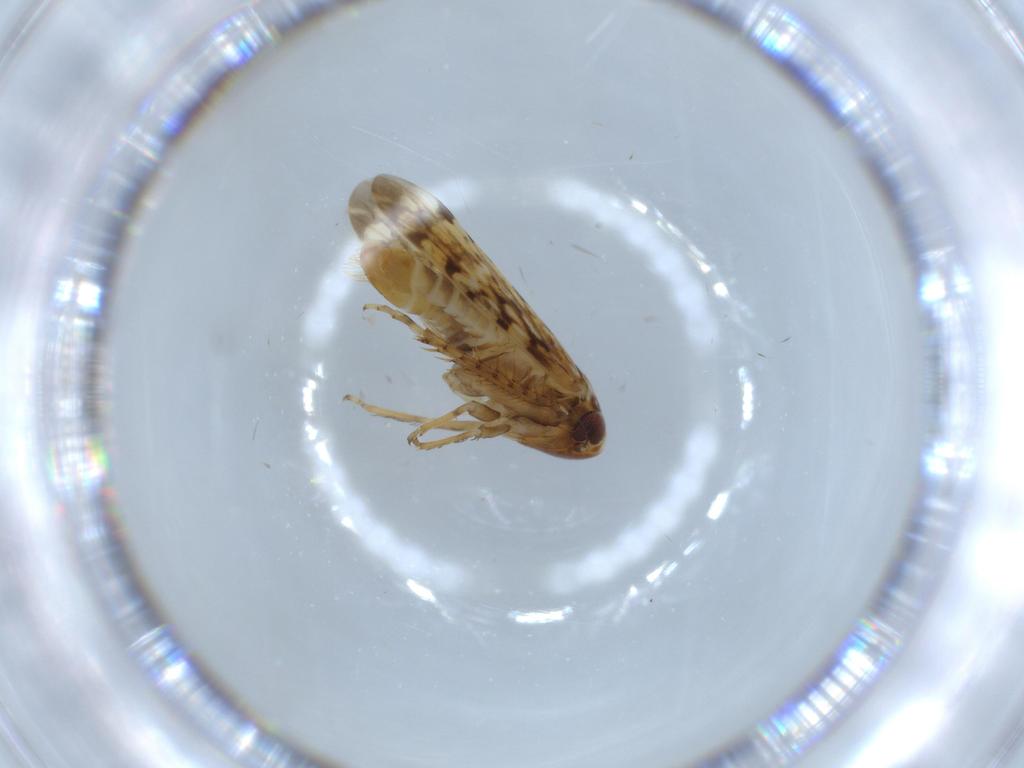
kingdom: Animalia
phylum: Arthropoda
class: Insecta
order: Hemiptera
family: Cicadellidae
